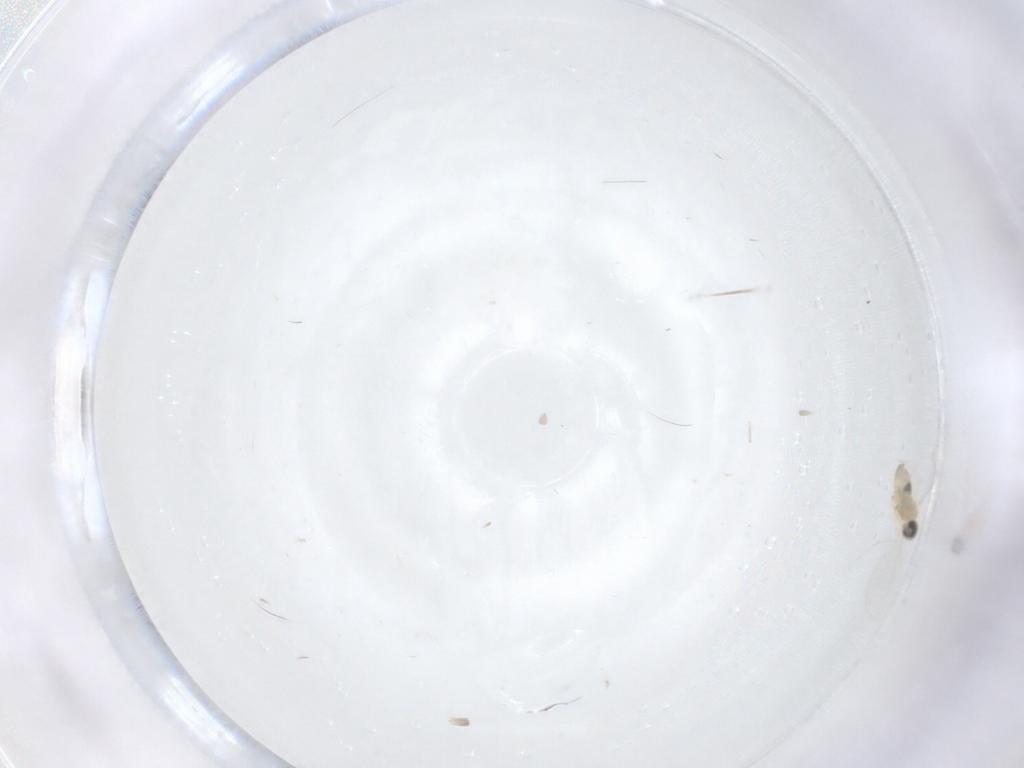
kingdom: Animalia
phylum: Arthropoda
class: Insecta
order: Diptera
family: Cecidomyiidae
